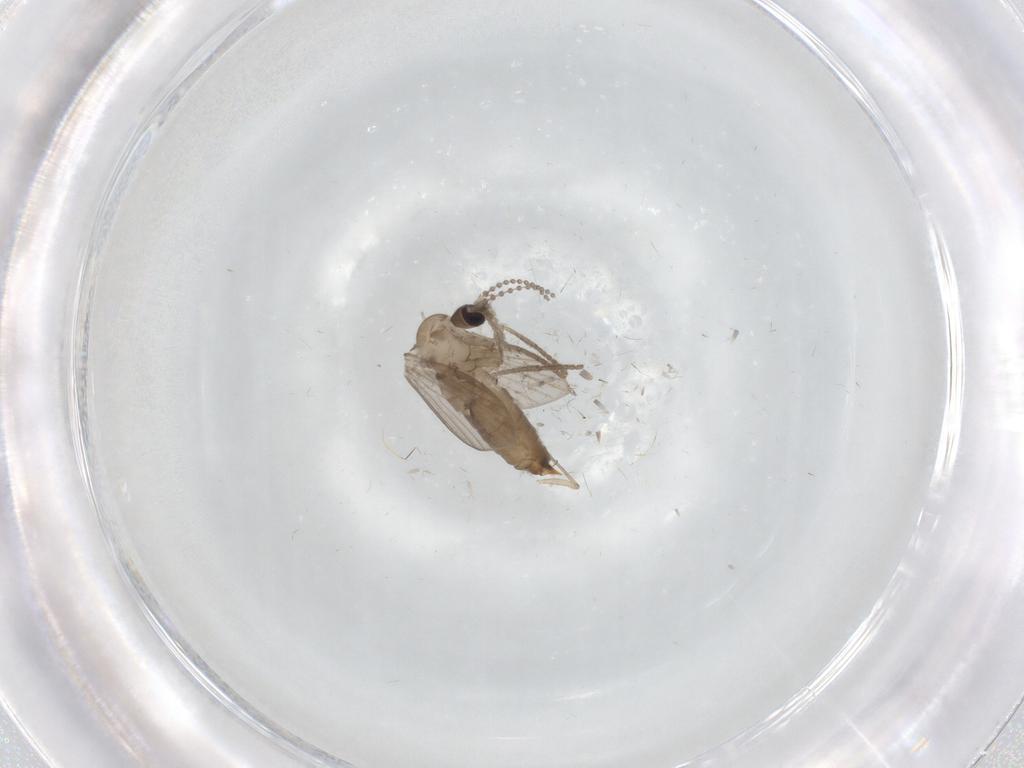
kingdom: Animalia
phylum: Arthropoda
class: Insecta
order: Diptera
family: Psychodidae
